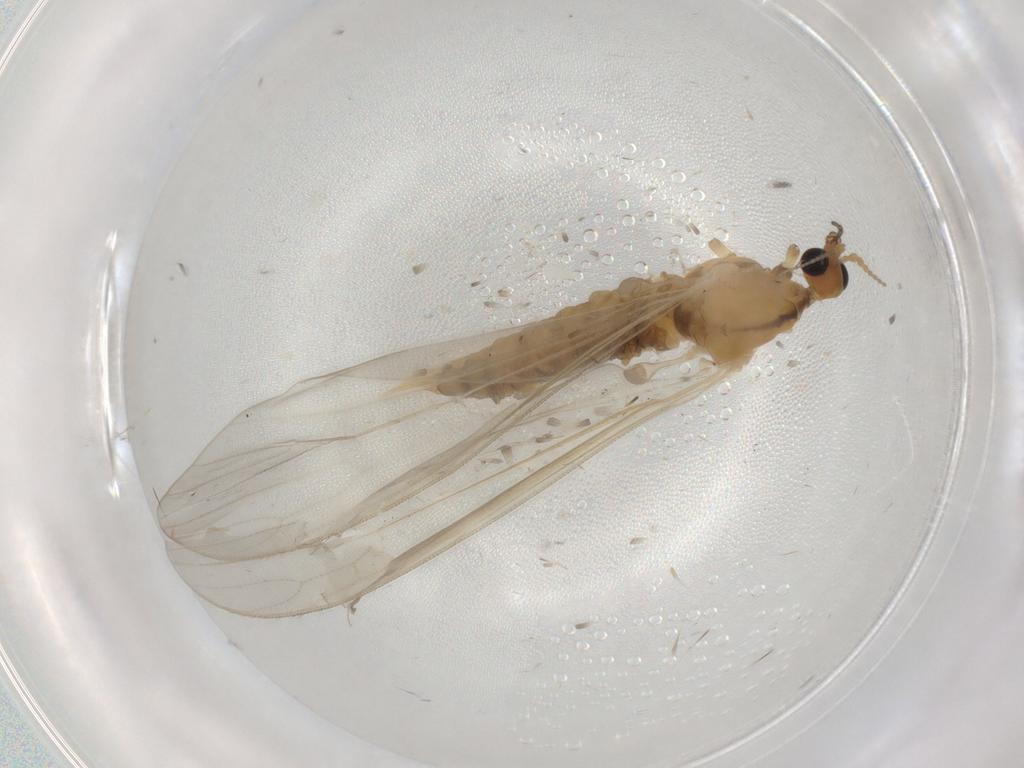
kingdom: Animalia
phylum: Arthropoda
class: Insecta
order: Diptera
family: Limoniidae
